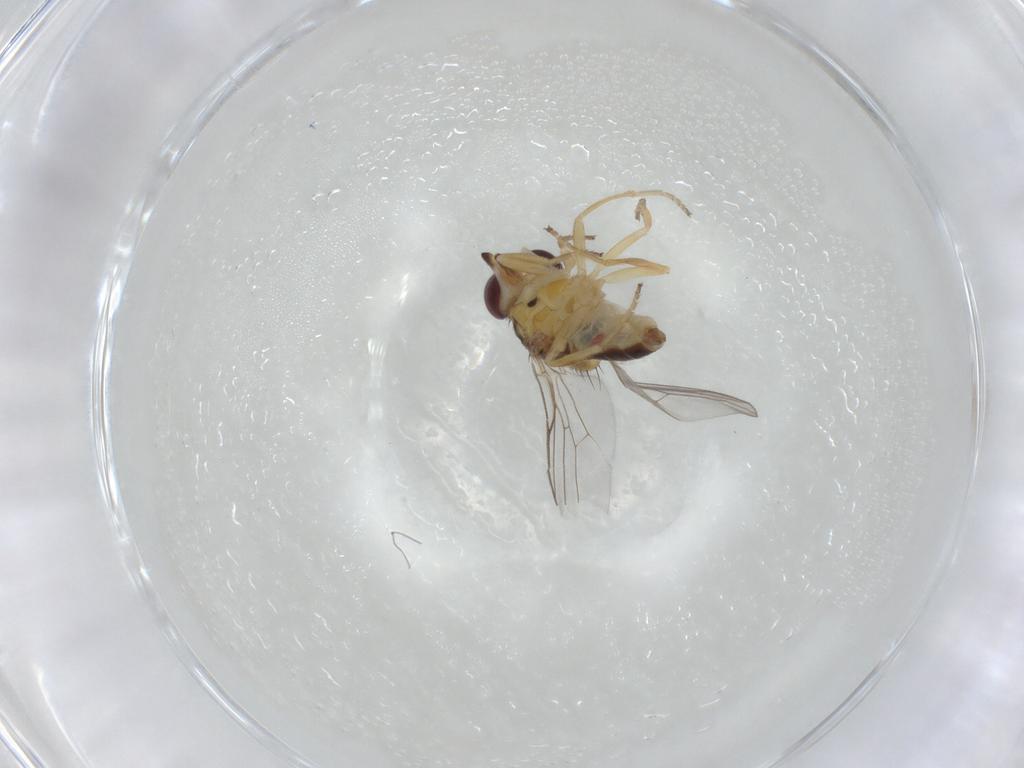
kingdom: Animalia
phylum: Arthropoda
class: Insecta
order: Diptera
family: Chloropidae
